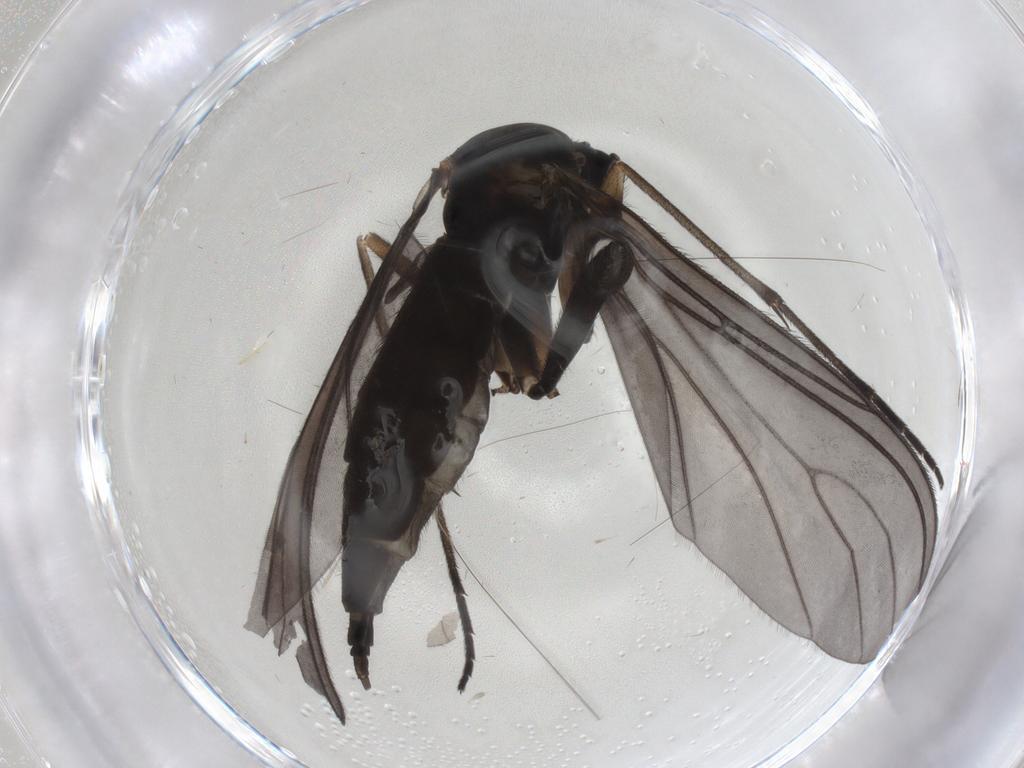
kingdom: Animalia
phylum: Arthropoda
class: Insecta
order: Diptera
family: Sciaridae
